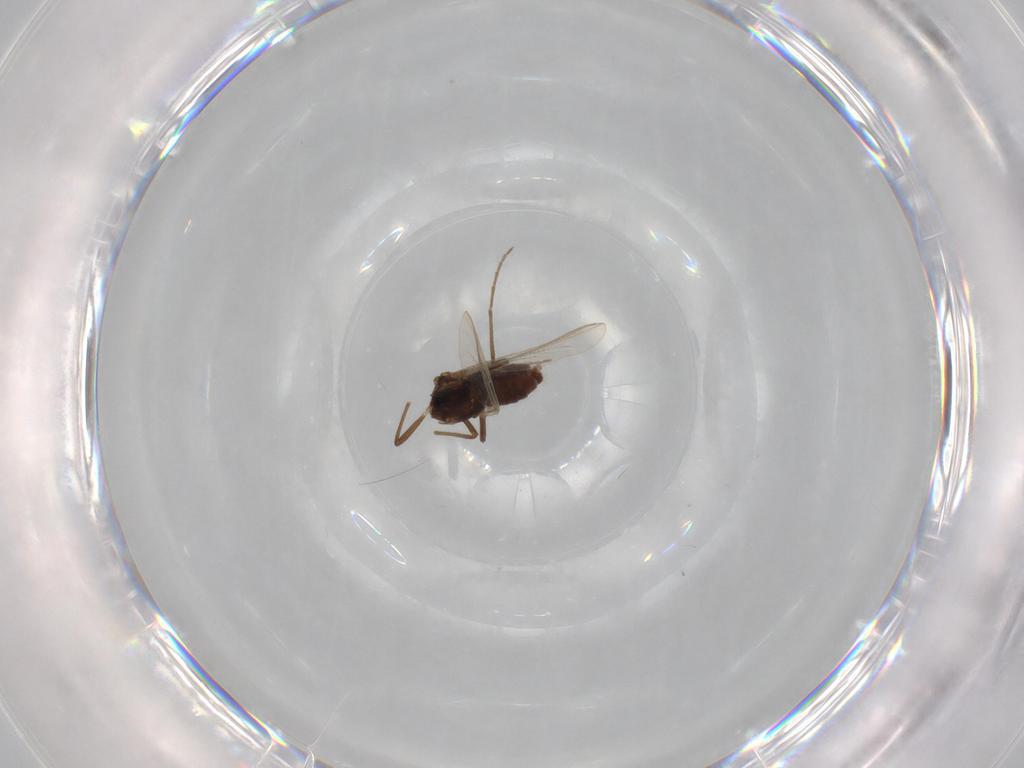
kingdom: Animalia
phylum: Arthropoda
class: Insecta
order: Diptera
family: Chironomidae
